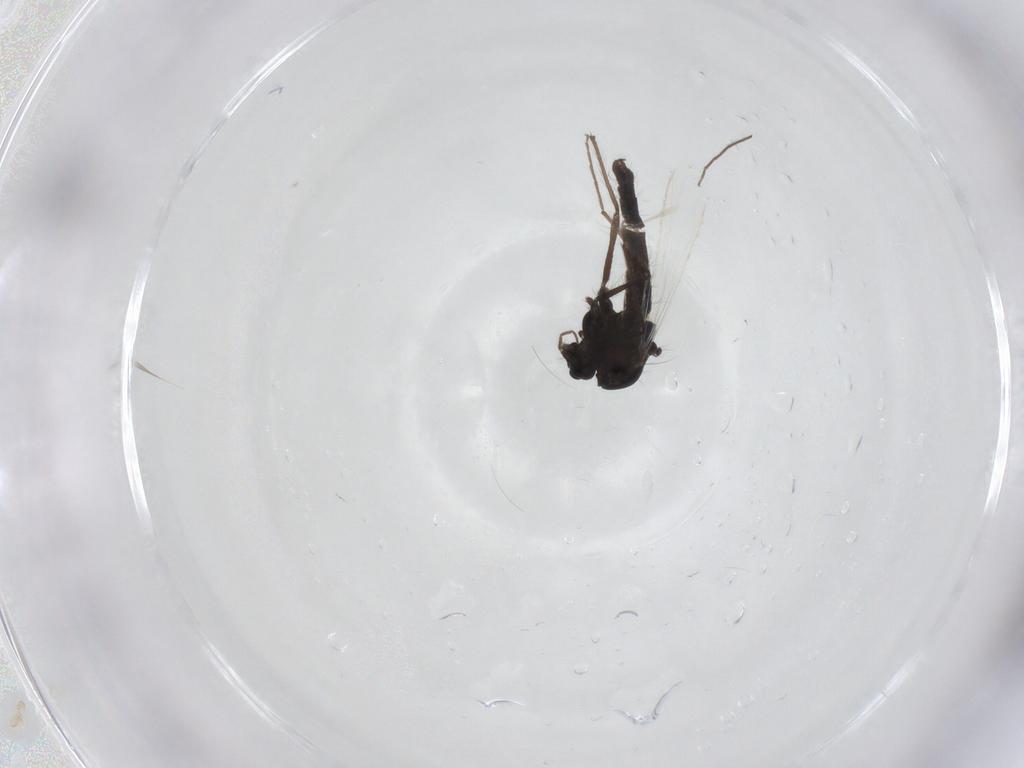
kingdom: Animalia
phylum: Arthropoda
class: Insecta
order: Diptera
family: Chironomidae
